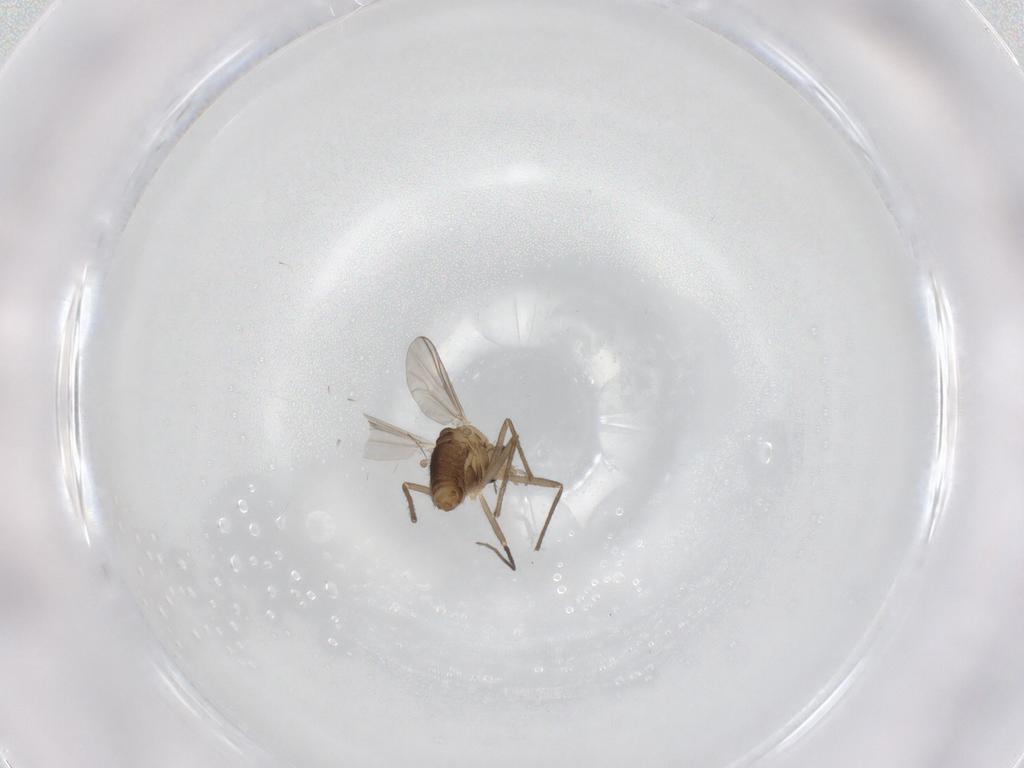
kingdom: Animalia
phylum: Arthropoda
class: Insecta
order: Diptera
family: Chironomidae
